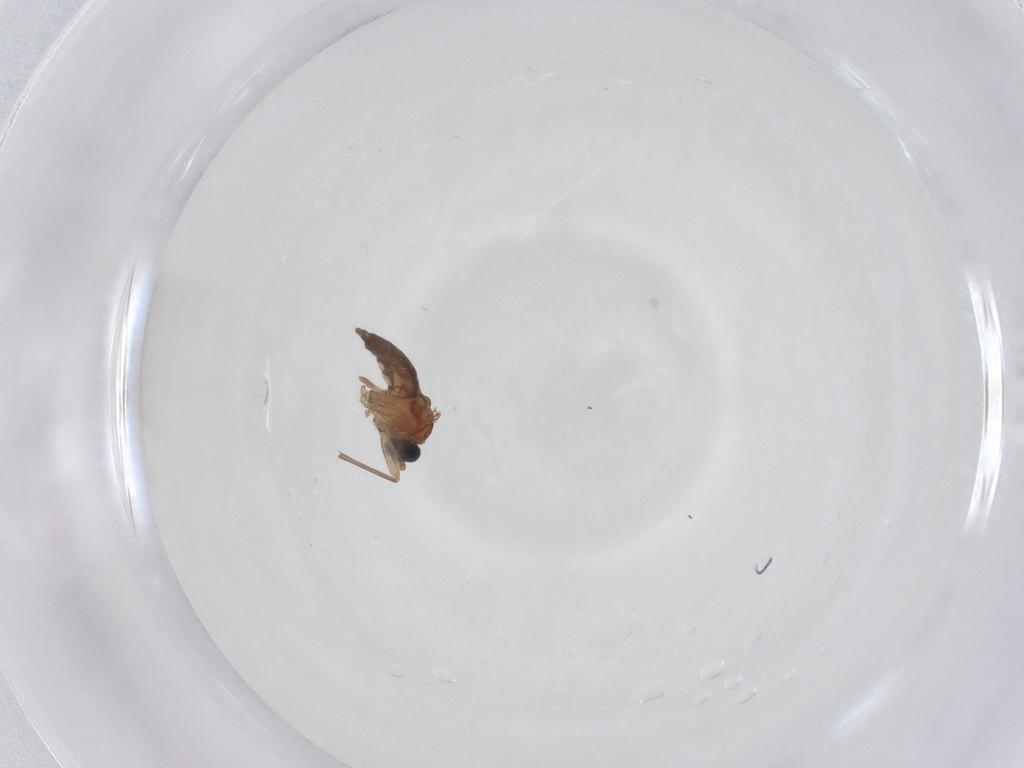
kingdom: Animalia
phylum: Arthropoda
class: Insecta
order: Diptera
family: Sciaridae
